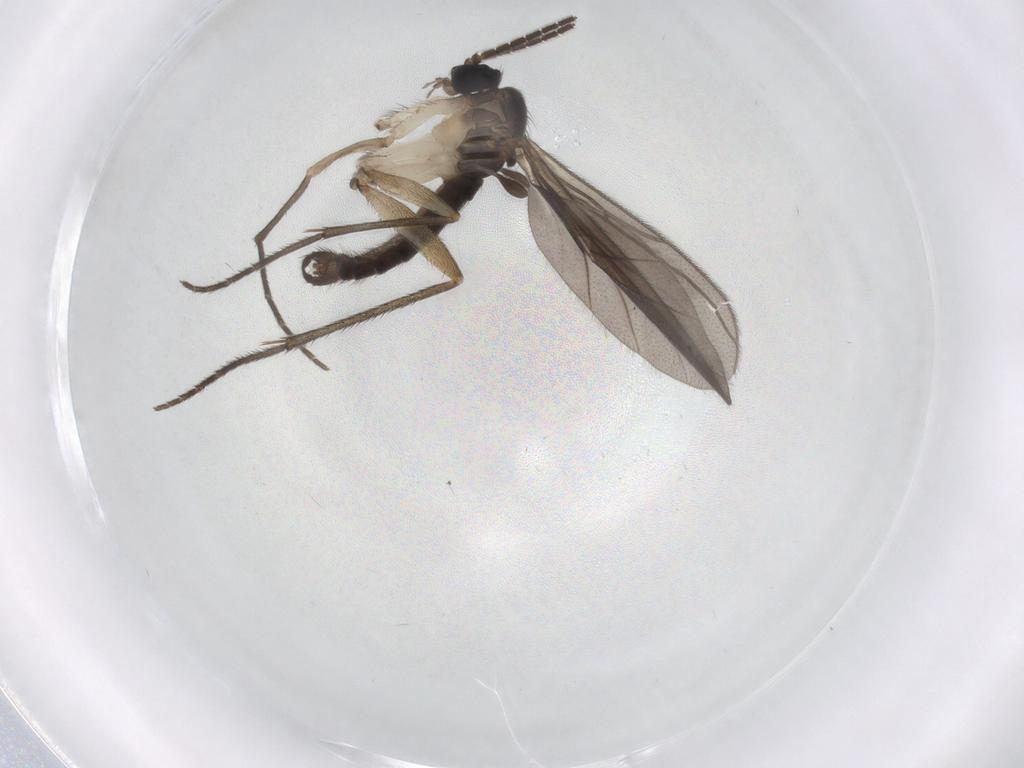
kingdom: Animalia
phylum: Arthropoda
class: Insecta
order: Diptera
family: Sciaridae
